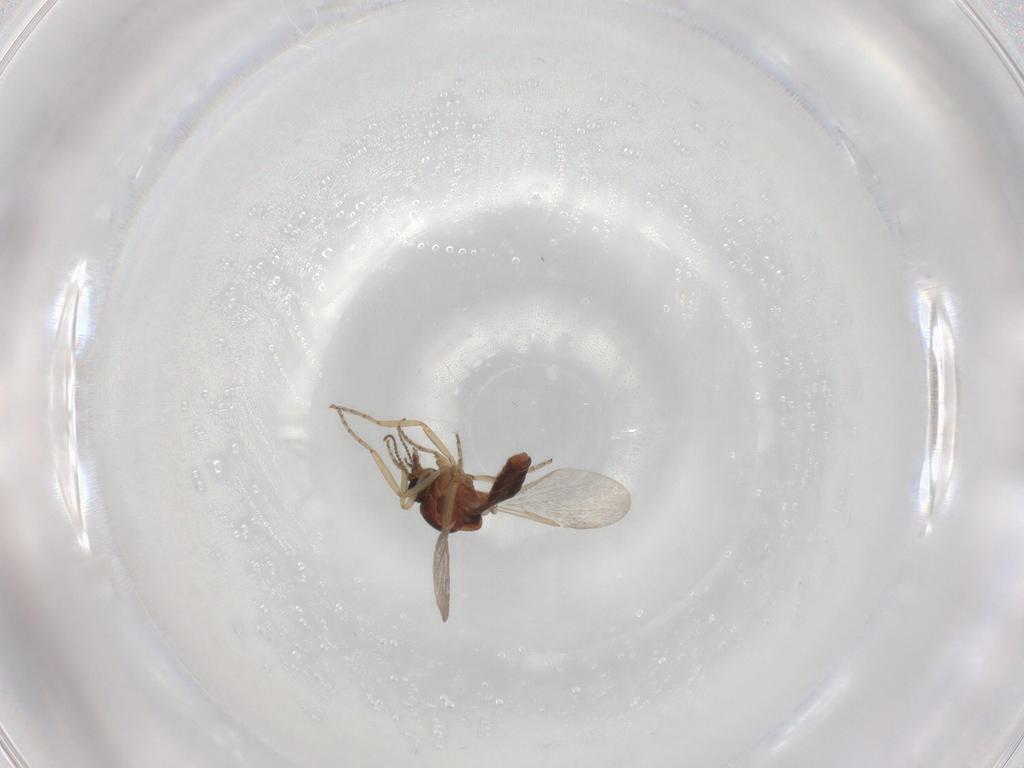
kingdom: Animalia
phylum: Arthropoda
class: Insecta
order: Diptera
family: Ceratopogonidae
